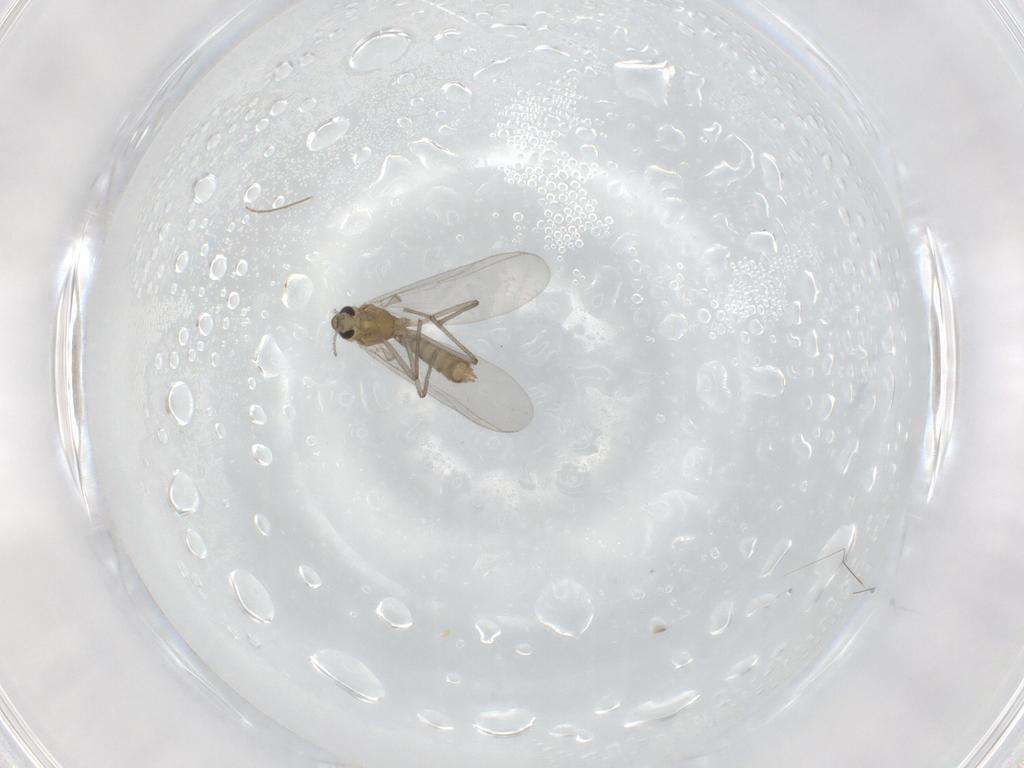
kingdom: Animalia
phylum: Arthropoda
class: Insecta
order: Diptera
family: Chironomidae
